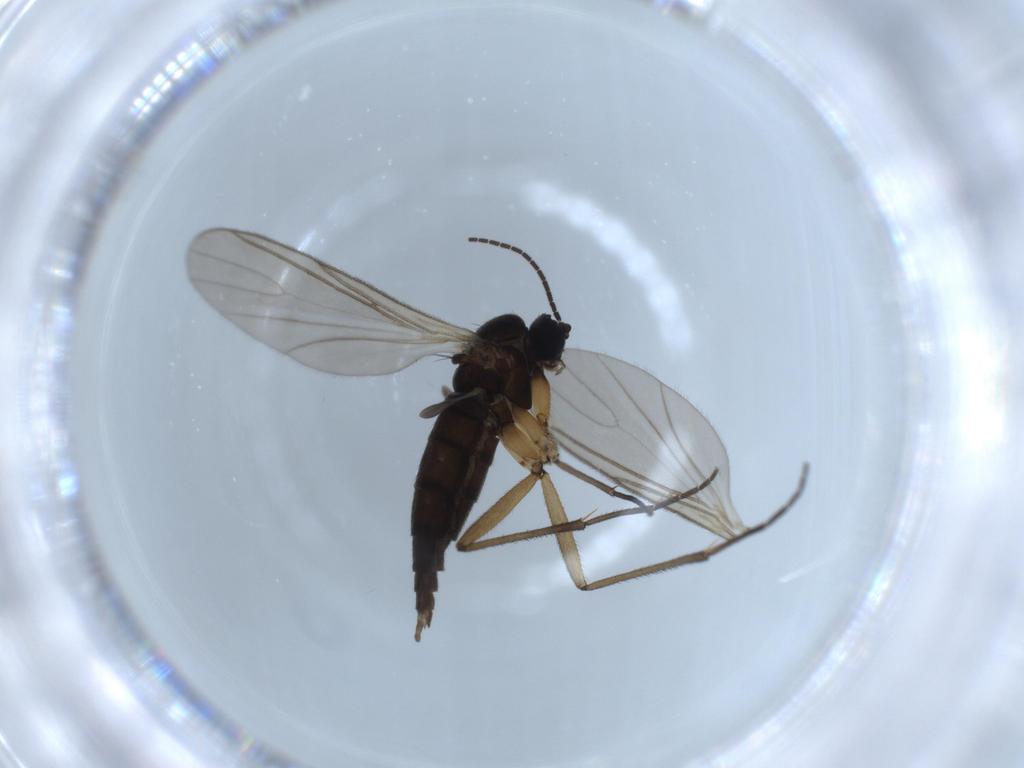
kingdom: Animalia
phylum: Arthropoda
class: Insecta
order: Diptera
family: Sciaridae
